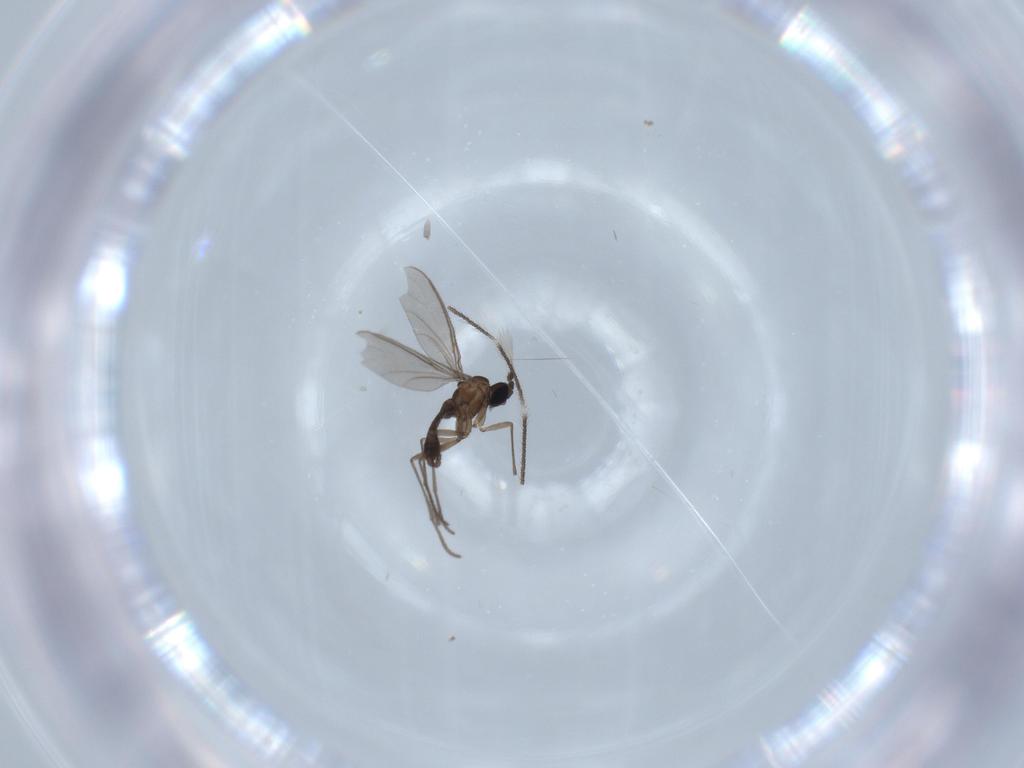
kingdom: Animalia
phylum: Arthropoda
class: Insecta
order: Diptera
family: Sciaridae
